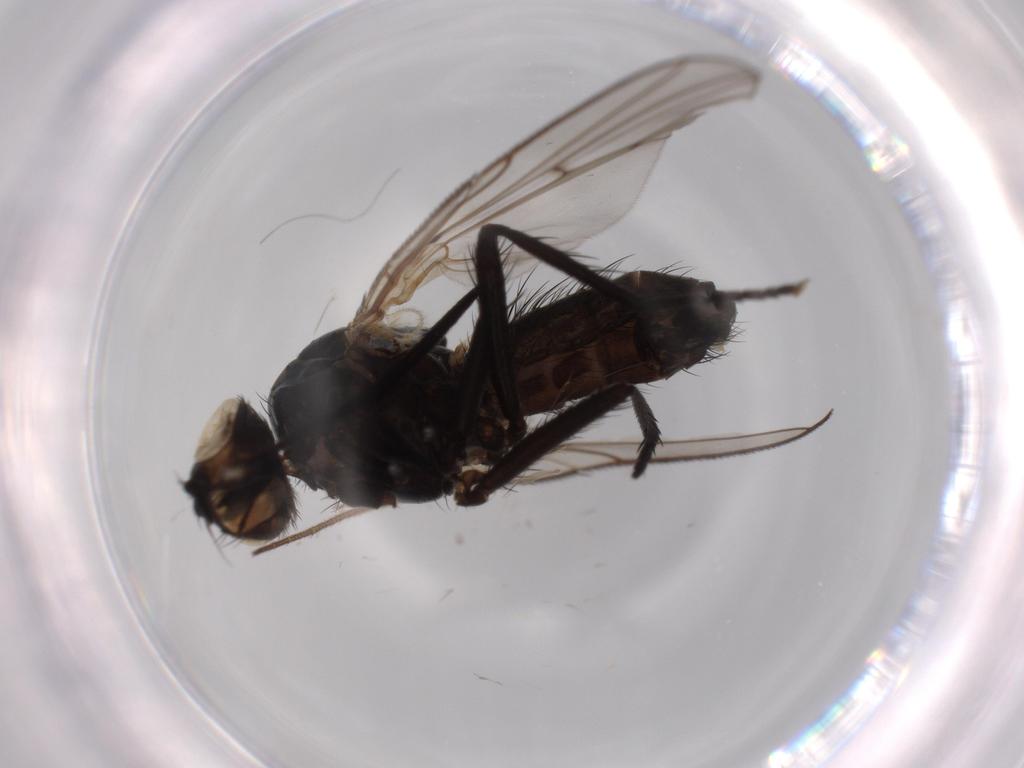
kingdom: Animalia
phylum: Arthropoda
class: Insecta
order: Diptera
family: Anthomyiidae
